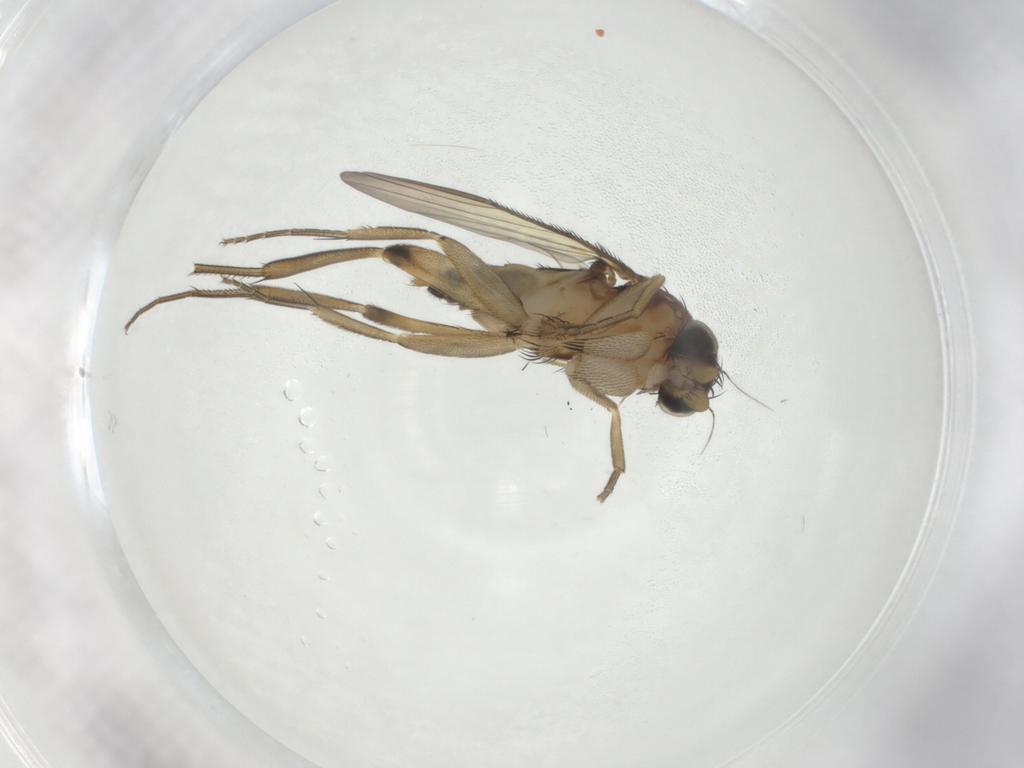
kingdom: Animalia
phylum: Arthropoda
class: Insecta
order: Diptera
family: Phoridae
